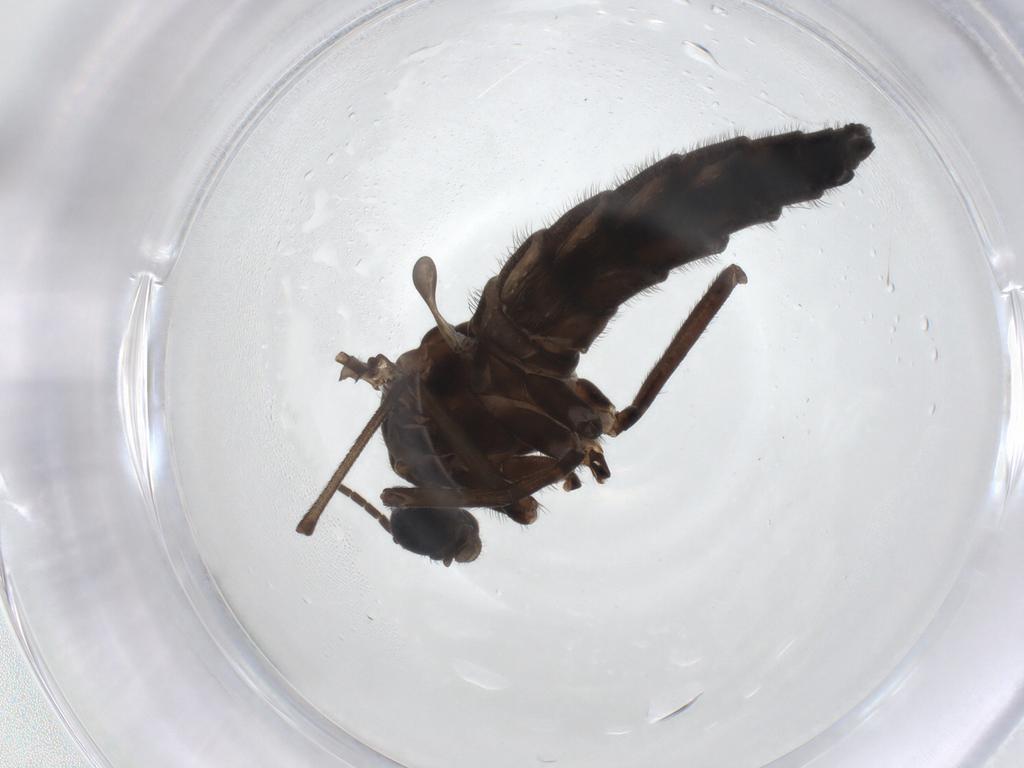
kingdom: Animalia
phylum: Arthropoda
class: Insecta
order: Diptera
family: Sciaridae
